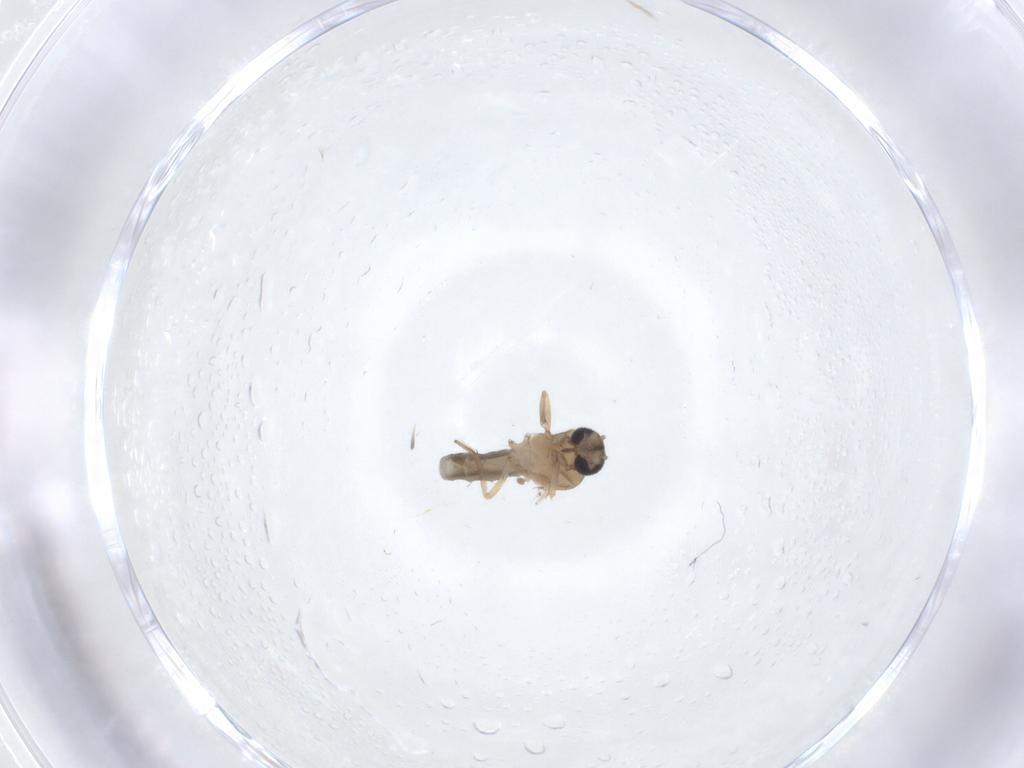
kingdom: Animalia
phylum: Arthropoda
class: Insecta
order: Diptera
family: Ceratopogonidae
